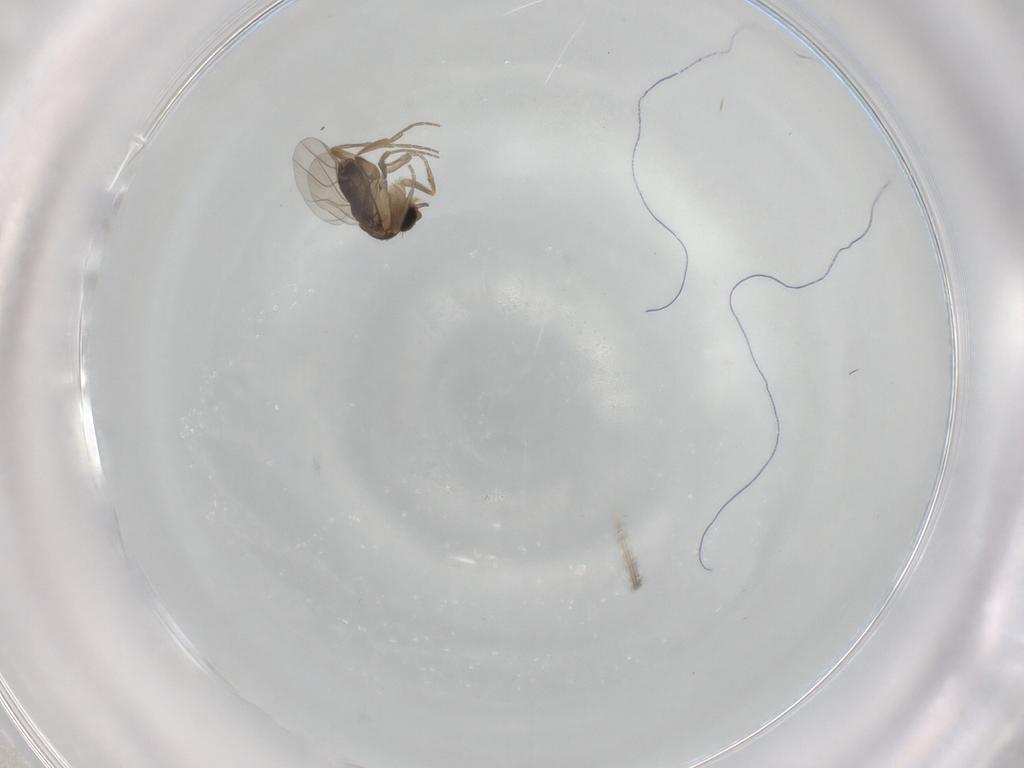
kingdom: Animalia
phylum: Arthropoda
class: Insecta
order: Diptera
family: Phoridae
